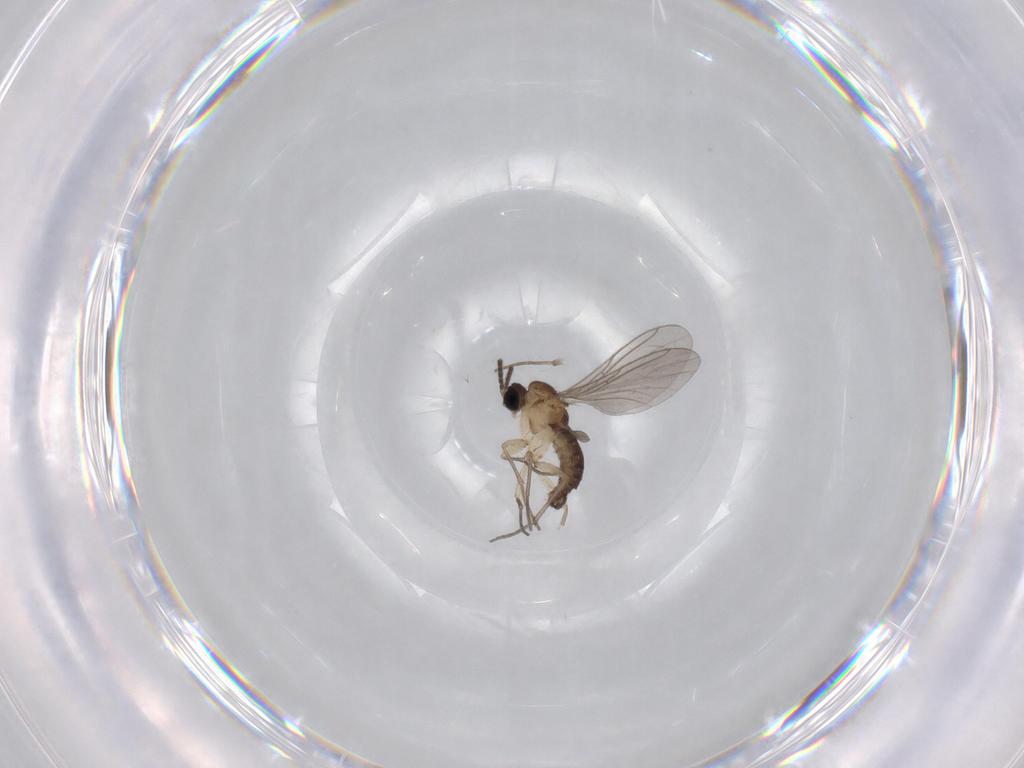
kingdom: Animalia
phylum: Arthropoda
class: Insecta
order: Diptera
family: Sciaridae
